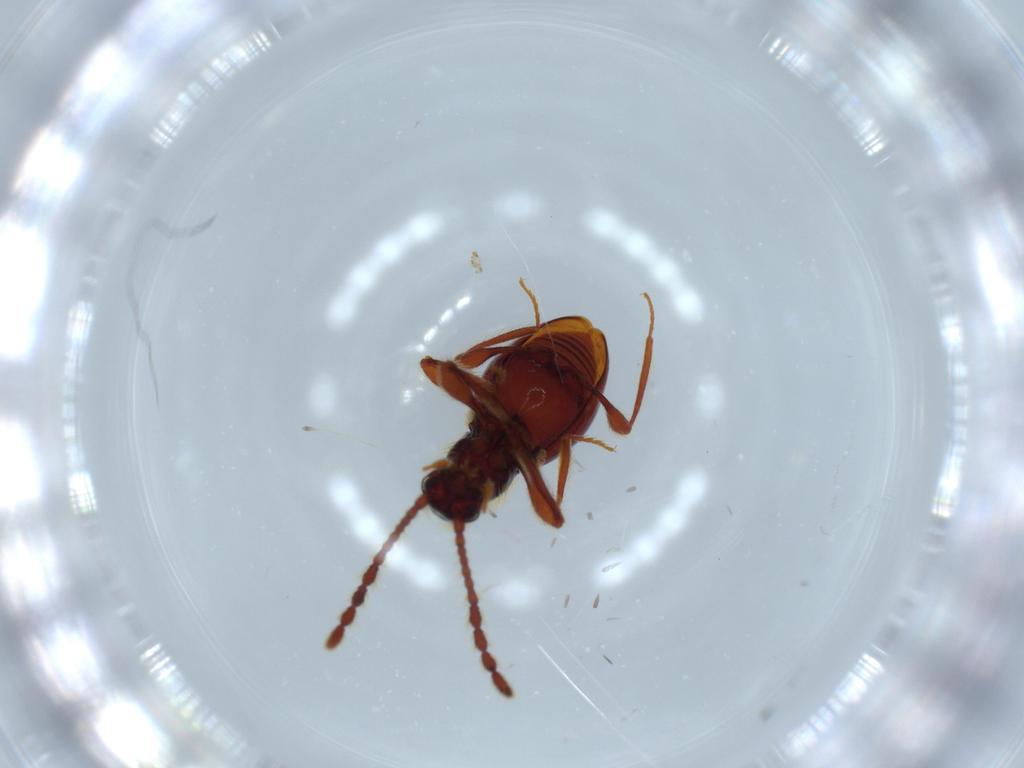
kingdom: Animalia
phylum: Arthropoda
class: Insecta
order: Coleoptera
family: Staphylinidae
